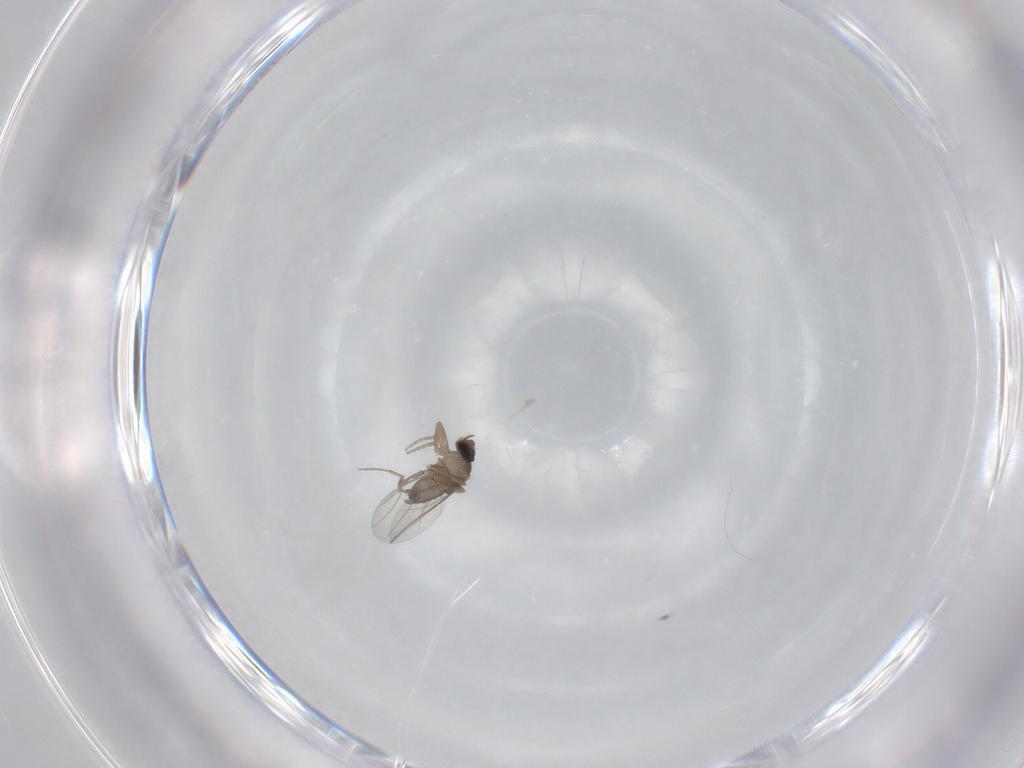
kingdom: Animalia
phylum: Arthropoda
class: Insecta
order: Diptera
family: Phoridae
